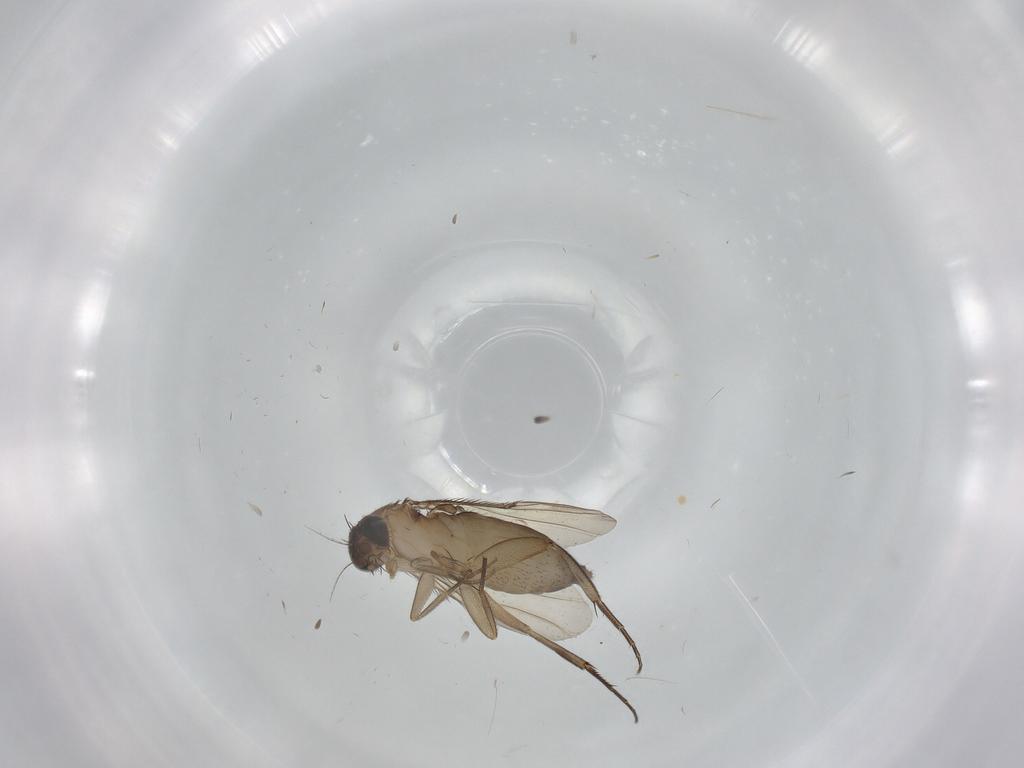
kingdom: Animalia
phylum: Arthropoda
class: Insecta
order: Diptera
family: Phoridae
